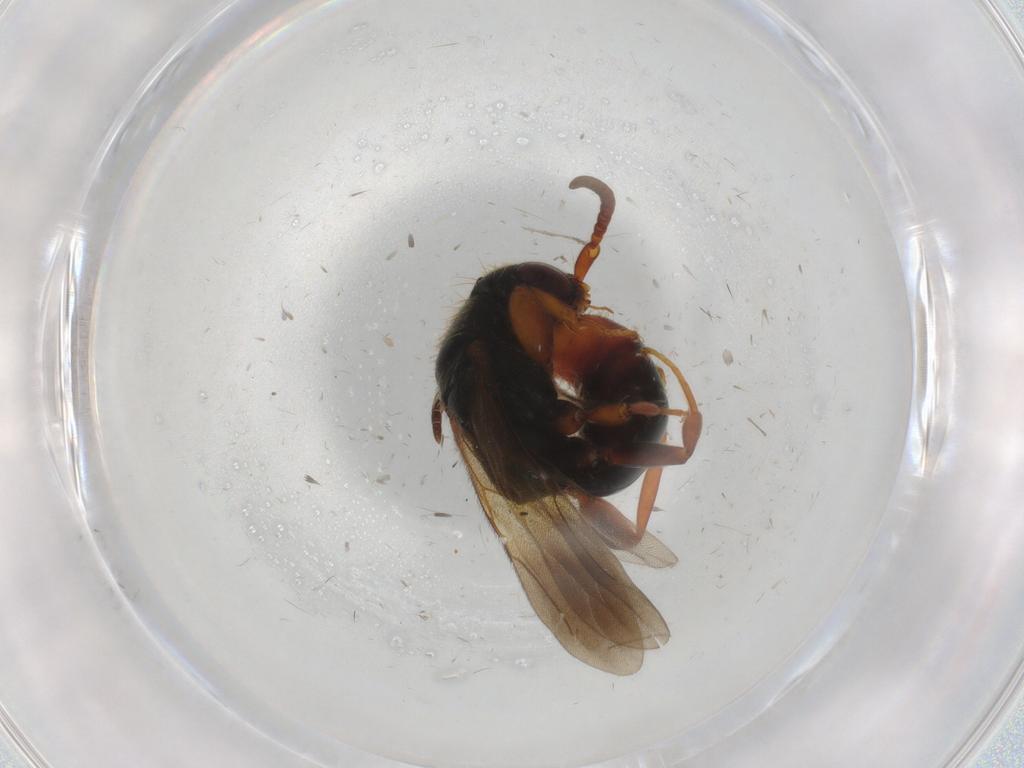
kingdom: Animalia
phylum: Arthropoda
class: Insecta
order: Hymenoptera
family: Platygastridae
